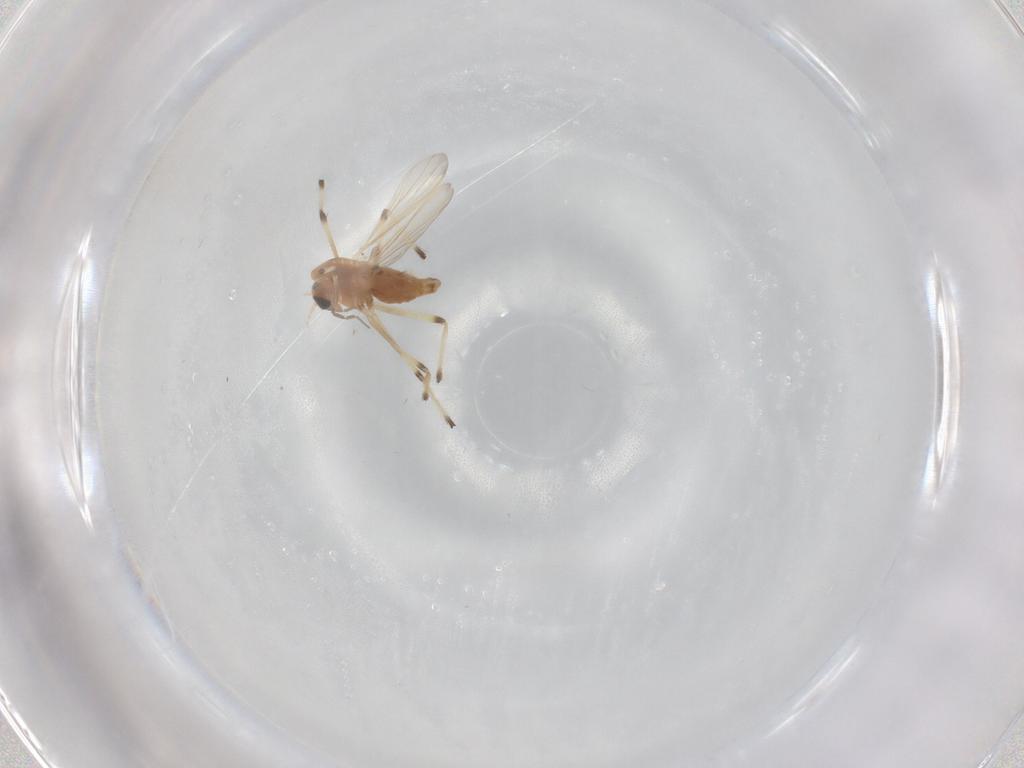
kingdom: Animalia
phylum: Arthropoda
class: Insecta
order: Diptera
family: Chironomidae
